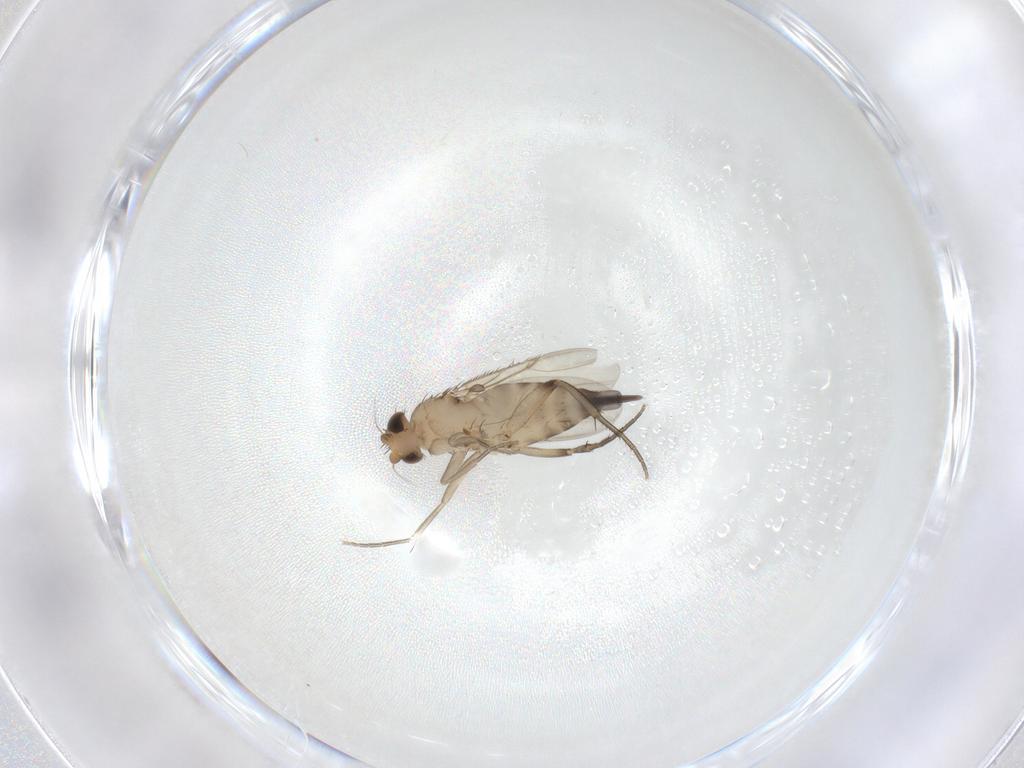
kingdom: Animalia
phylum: Arthropoda
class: Insecta
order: Diptera
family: Phoridae
